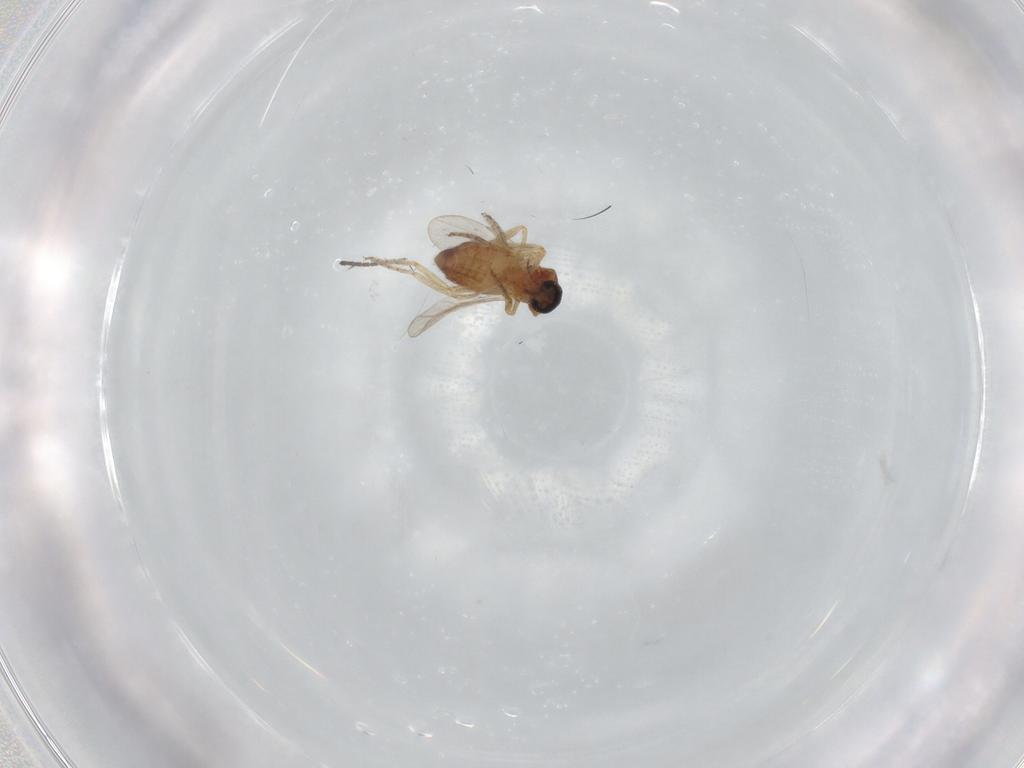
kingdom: Animalia
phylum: Arthropoda
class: Insecta
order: Diptera
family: Ceratopogonidae
